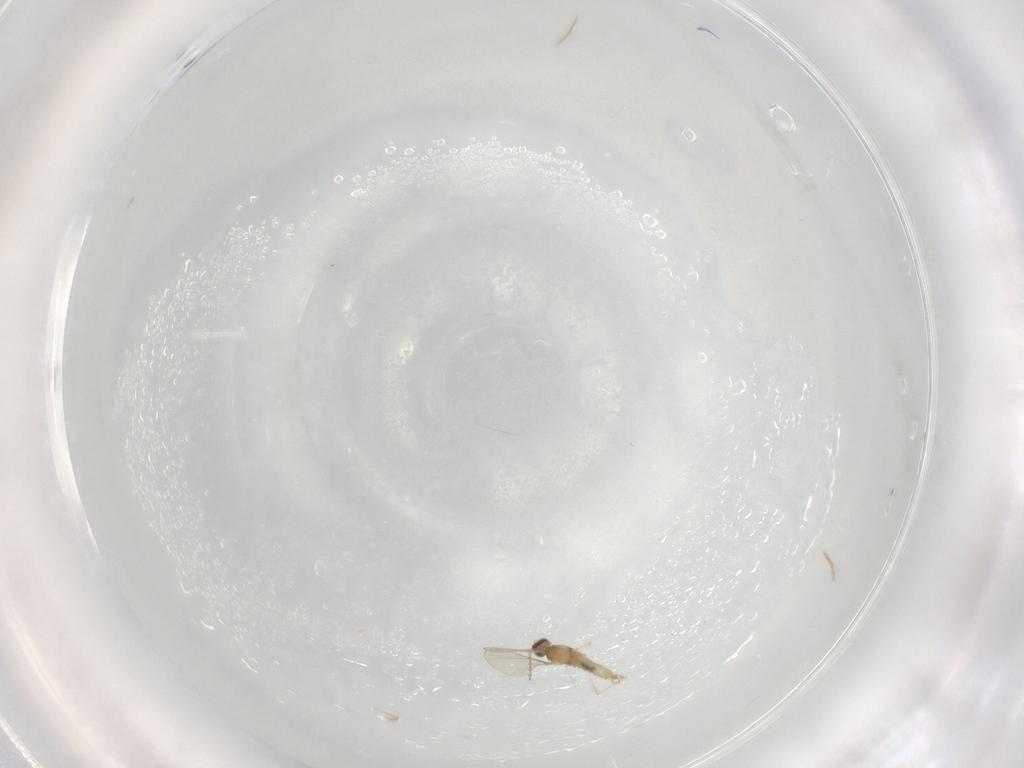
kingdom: Animalia
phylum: Arthropoda
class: Insecta
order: Diptera
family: Phoridae
